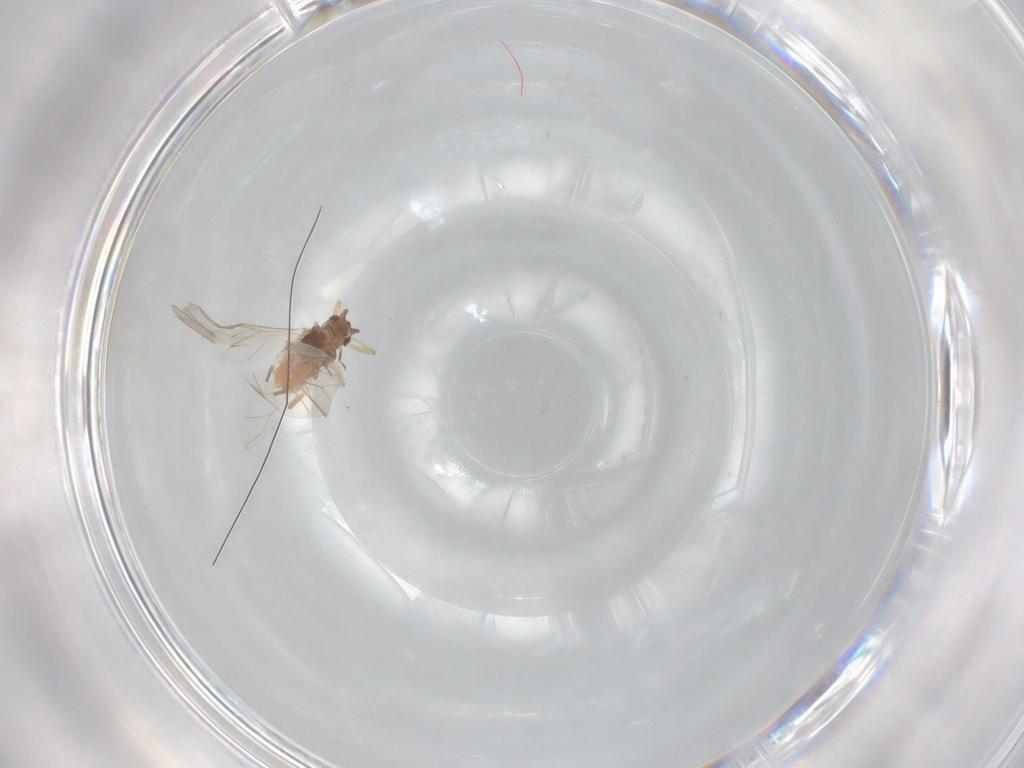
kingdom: Animalia
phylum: Arthropoda
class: Insecta
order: Hemiptera
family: Aphididae
